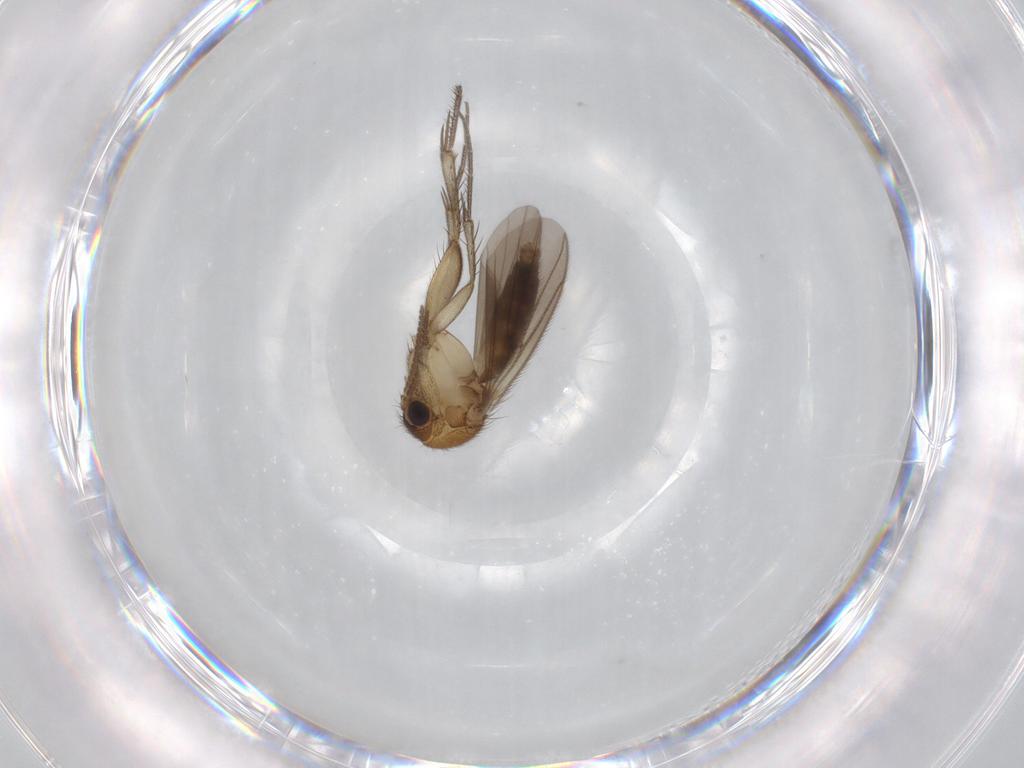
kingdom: Animalia
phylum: Arthropoda
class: Insecta
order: Diptera
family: Mycetophilidae
